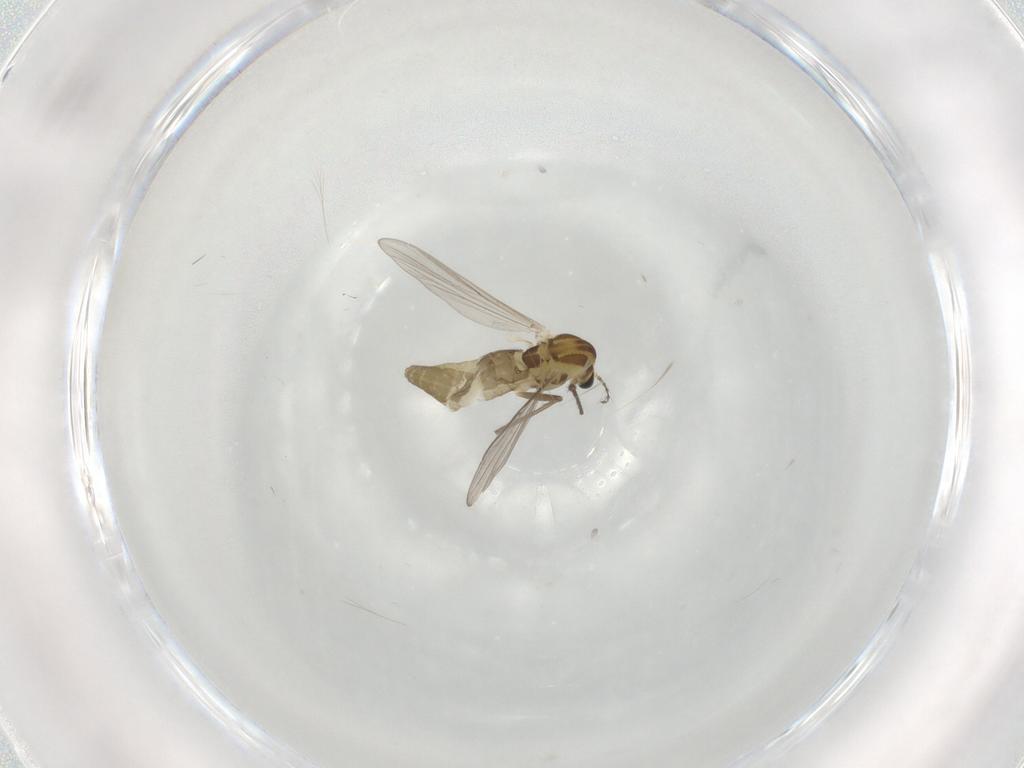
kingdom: Animalia
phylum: Arthropoda
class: Insecta
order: Diptera
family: Chironomidae
